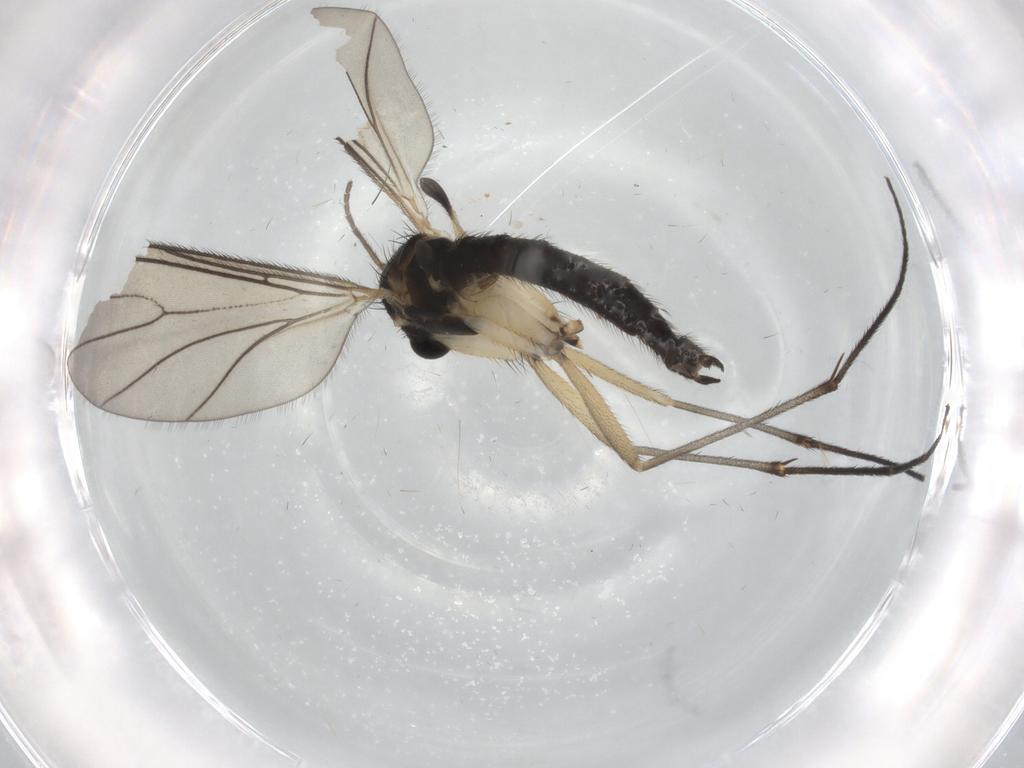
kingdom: Animalia
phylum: Arthropoda
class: Insecta
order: Diptera
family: Sciaridae
